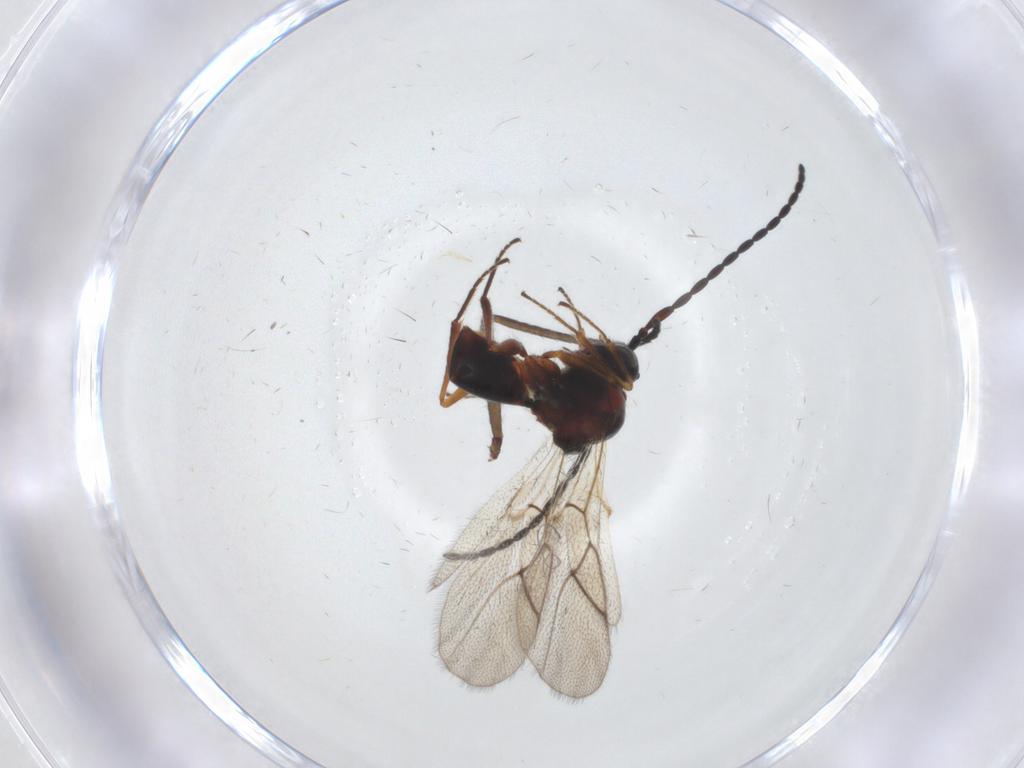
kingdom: Animalia
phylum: Arthropoda
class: Insecta
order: Hymenoptera
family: Figitidae
